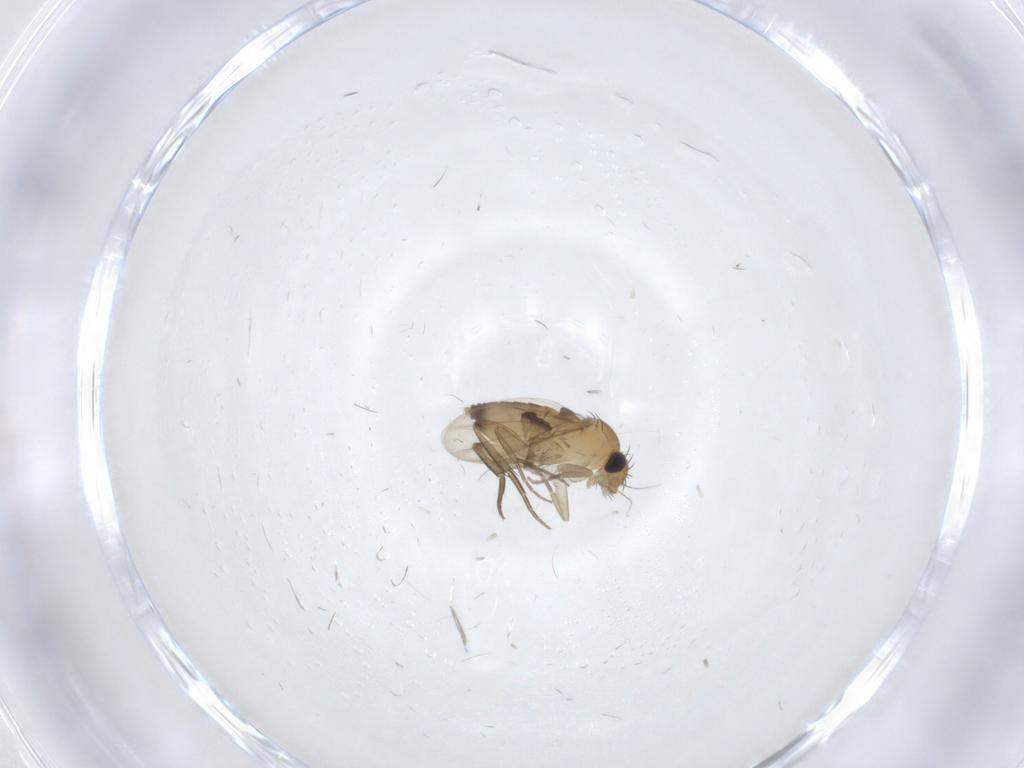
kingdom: Animalia
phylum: Arthropoda
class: Insecta
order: Diptera
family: Phoridae
